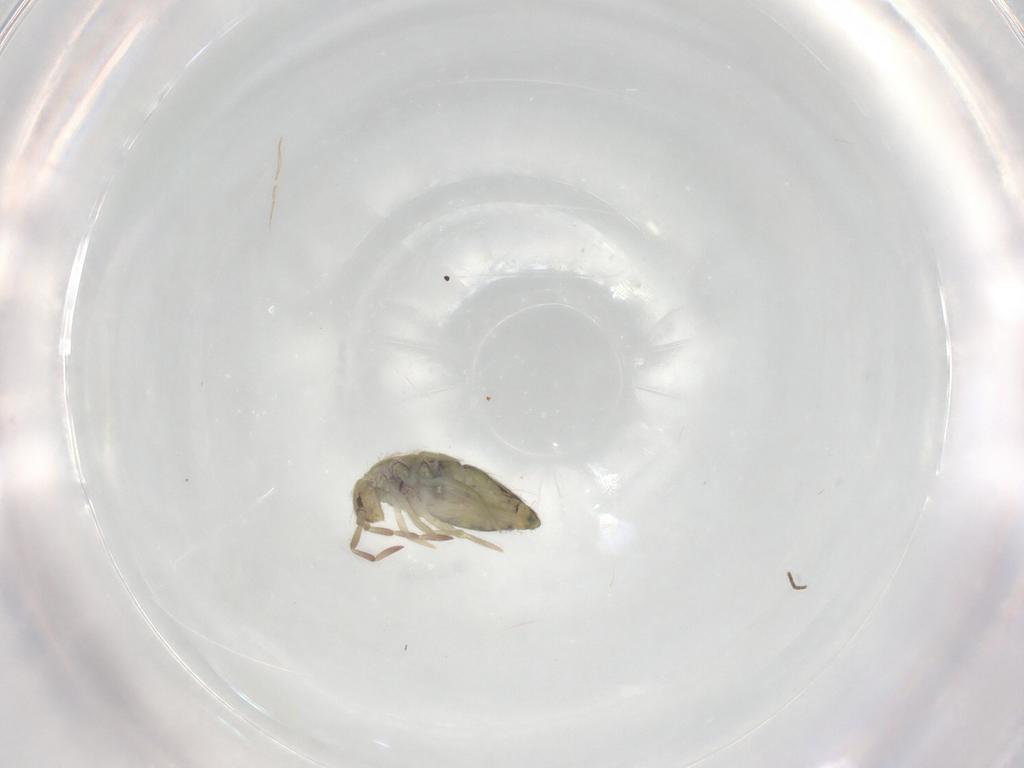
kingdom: Animalia
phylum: Arthropoda
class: Collembola
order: Entomobryomorpha
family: Entomobryidae
